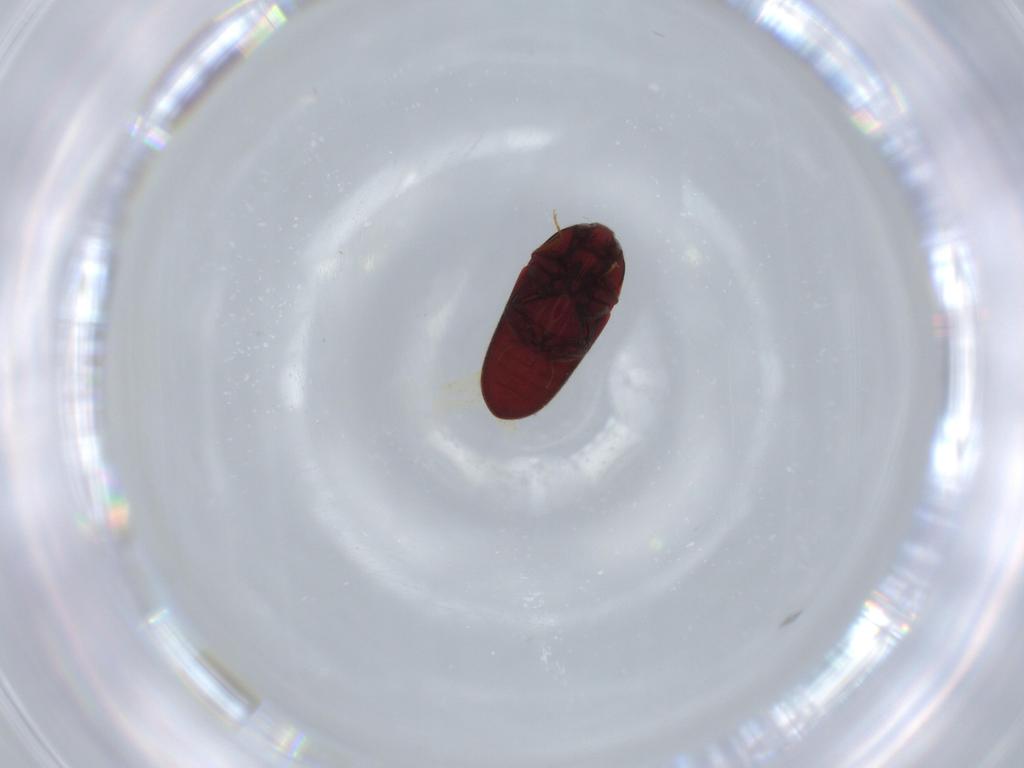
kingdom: Animalia
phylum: Arthropoda
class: Insecta
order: Coleoptera
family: Throscidae
